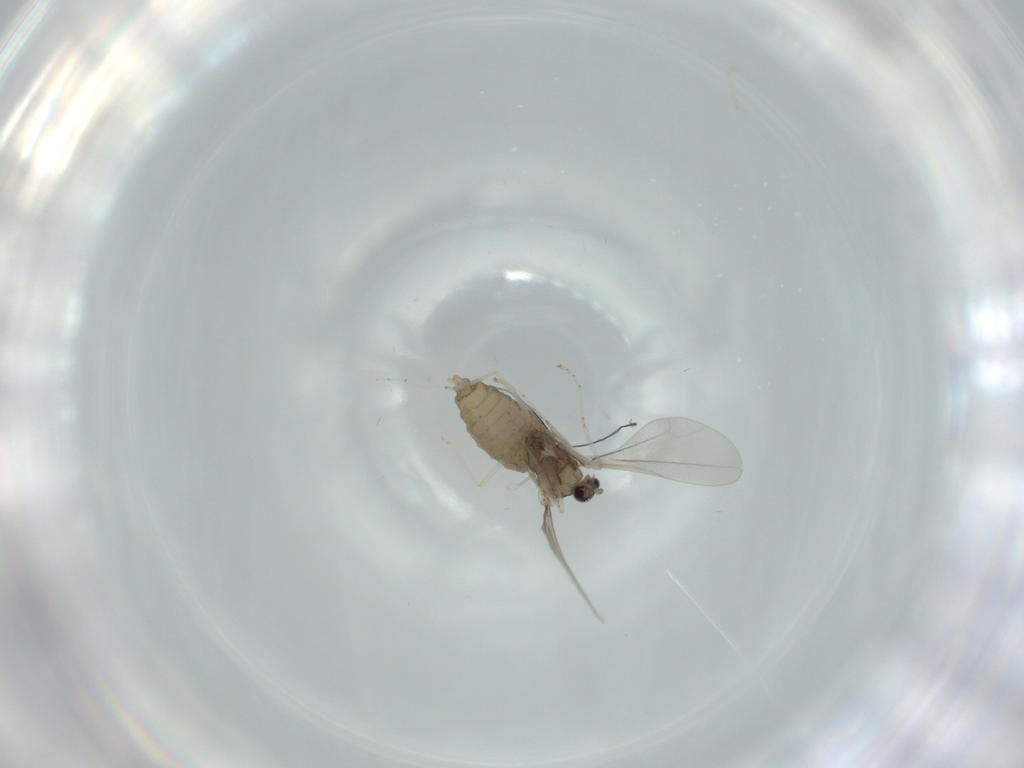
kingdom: Animalia
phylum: Arthropoda
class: Insecta
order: Diptera
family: Cecidomyiidae
